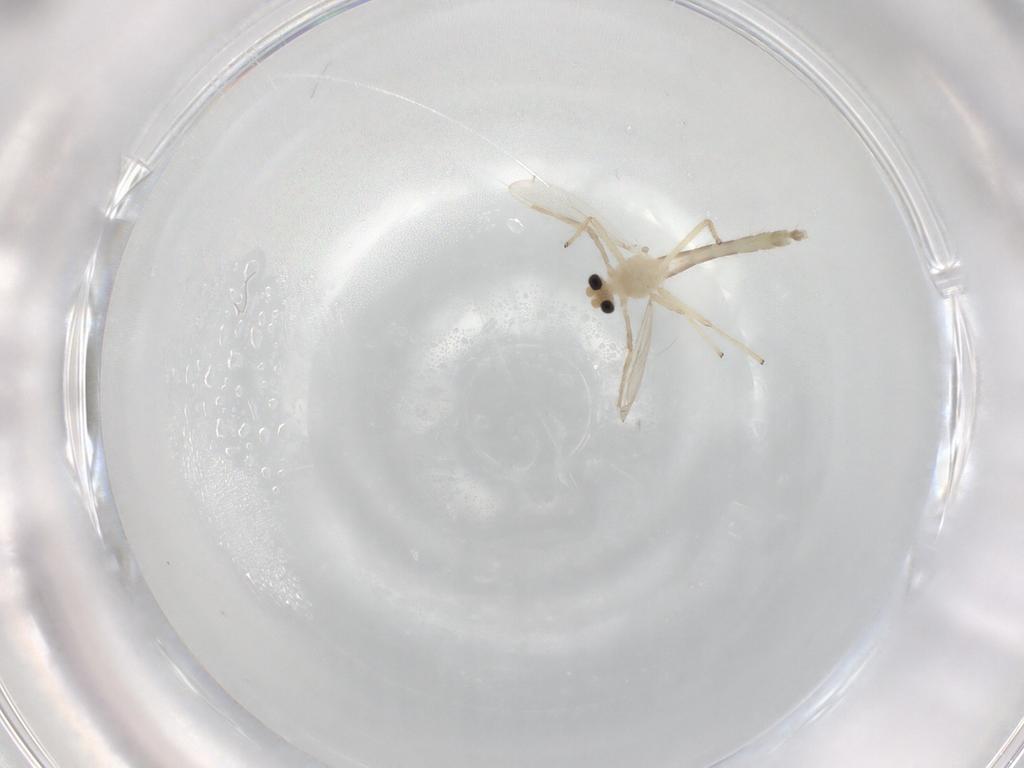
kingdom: Animalia
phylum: Arthropoda
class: Insecta
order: Diptera
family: Chironomidae
